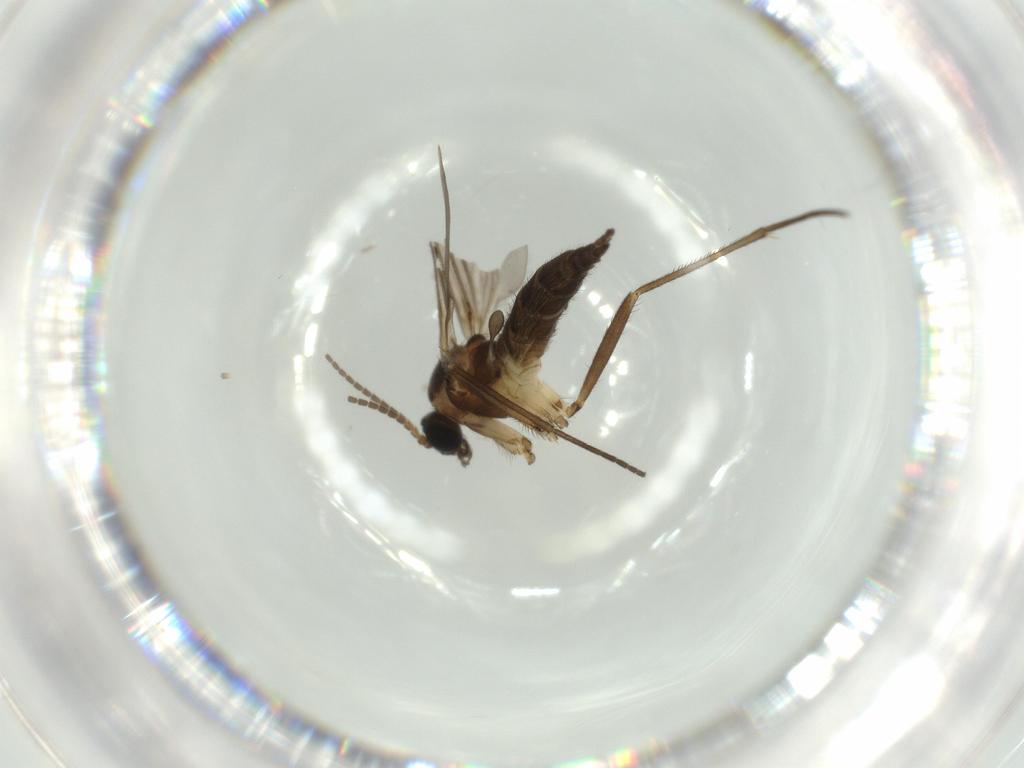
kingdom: Animalia
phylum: Arthropoda
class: Insecta
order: Diptera
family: Sciaridae
